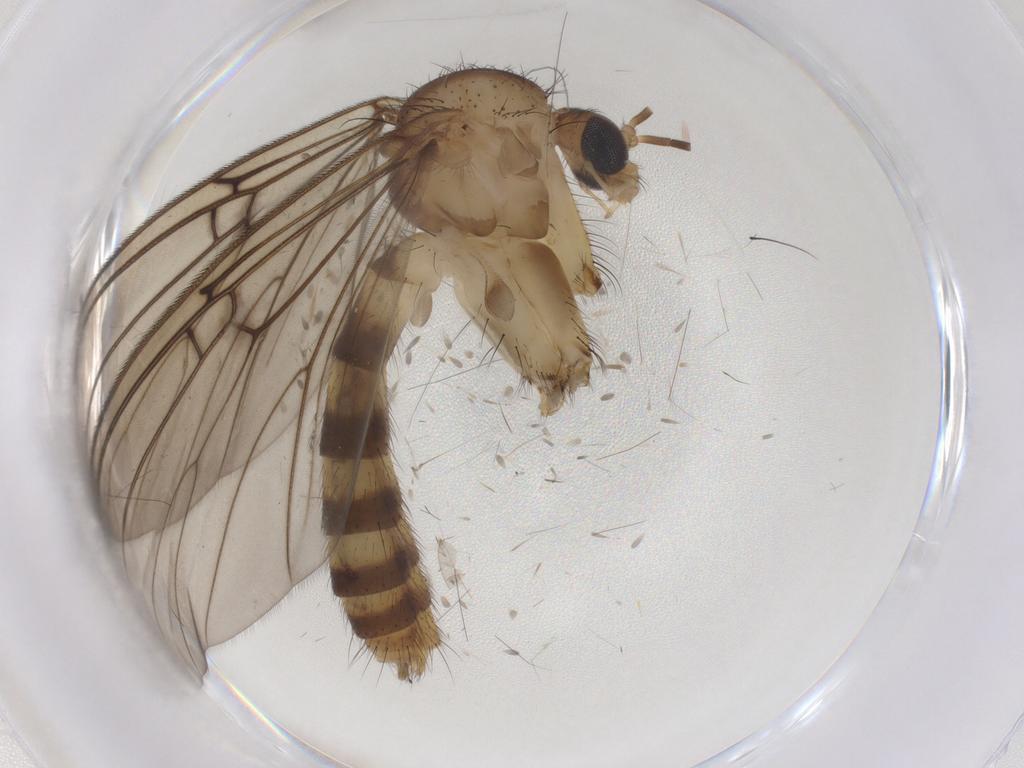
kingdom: Animalia
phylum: Arthropoda
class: Insecta
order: Diptera
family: Mycetophilidae
